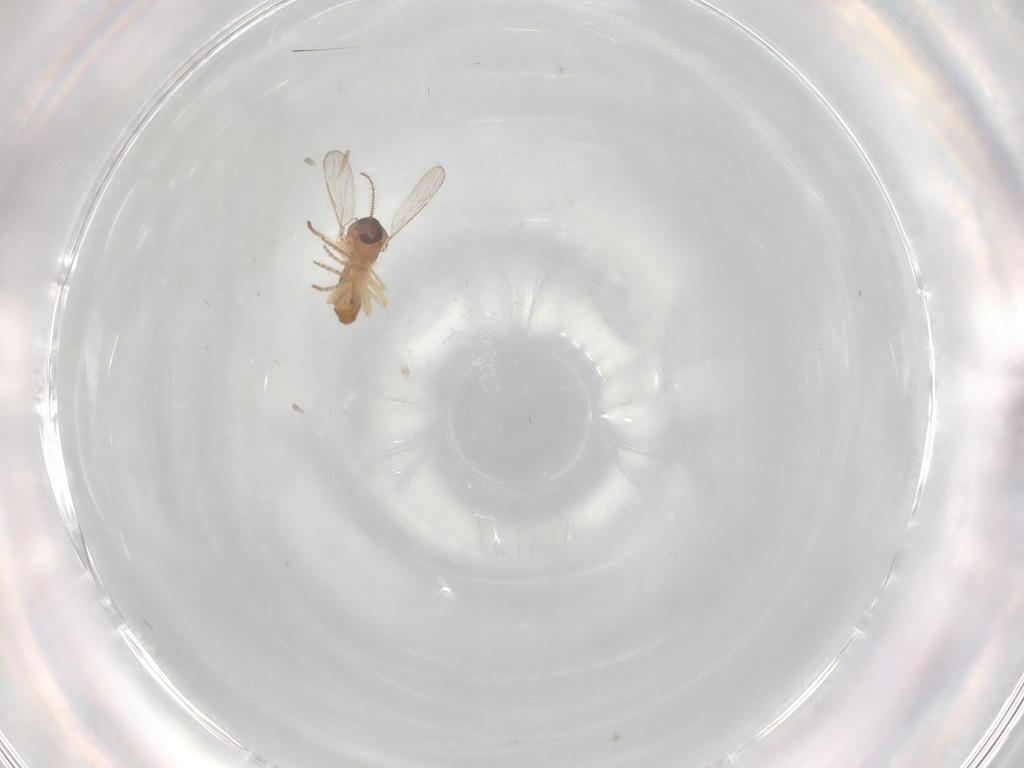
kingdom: Animalia
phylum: Arthropoda
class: Insecta
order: Diptera
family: Ceratopogonidae
